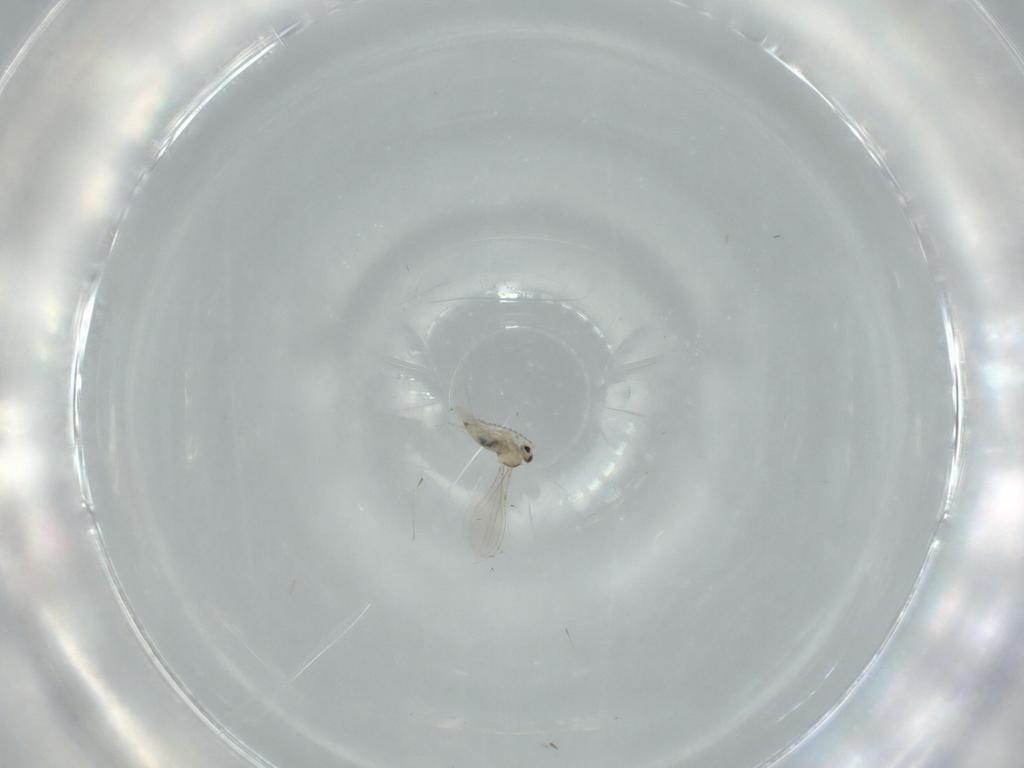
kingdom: Animalia
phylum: Arthropoda
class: Insecta
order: Diptera
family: Cecidomyiidae
